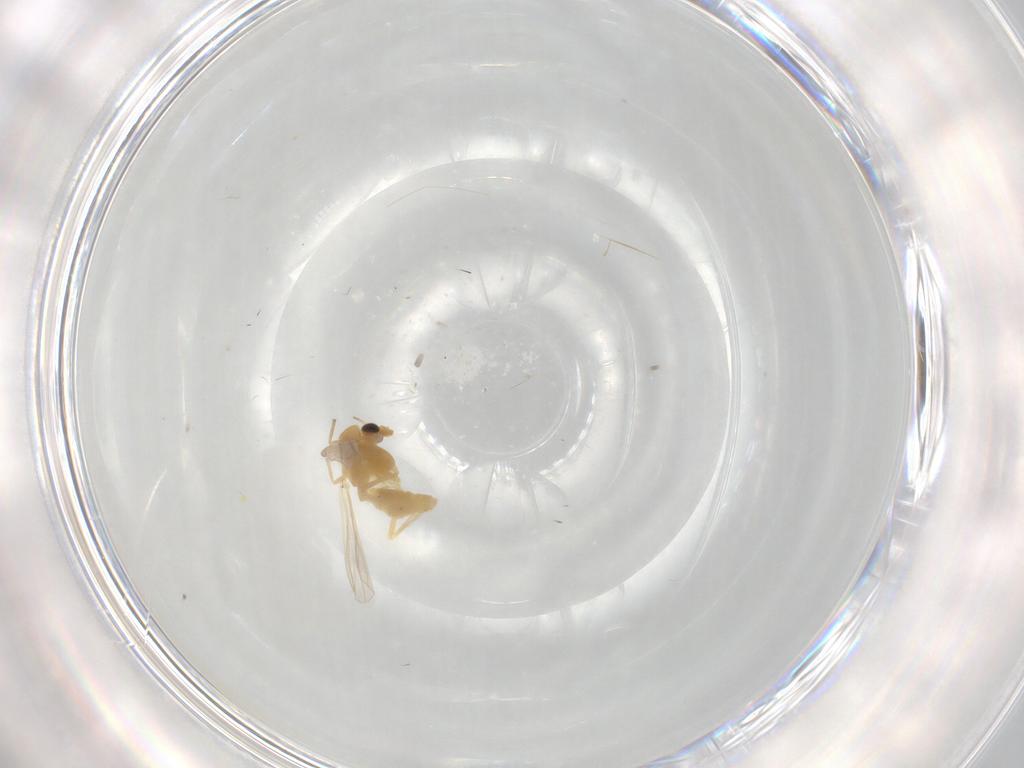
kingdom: Animalia
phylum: Arthropoda
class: Insecta
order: Diptera
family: Chironomidae
